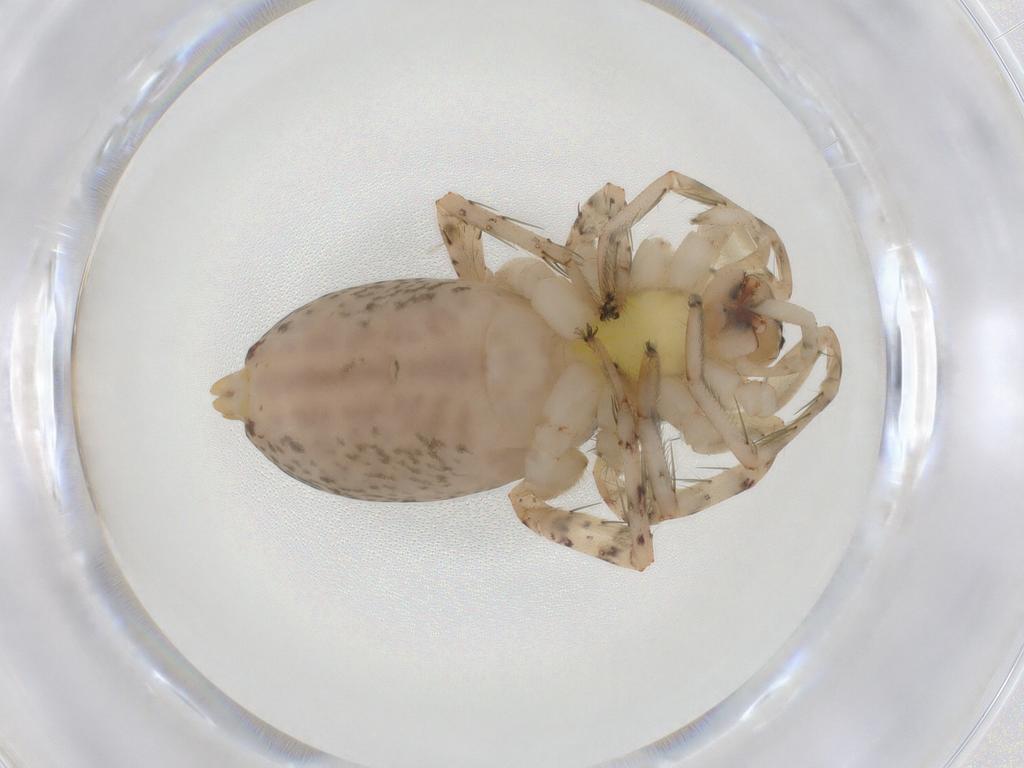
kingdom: Animalia
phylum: Arthropoda
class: Arachnida
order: Araneae
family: Anyphaenidae
